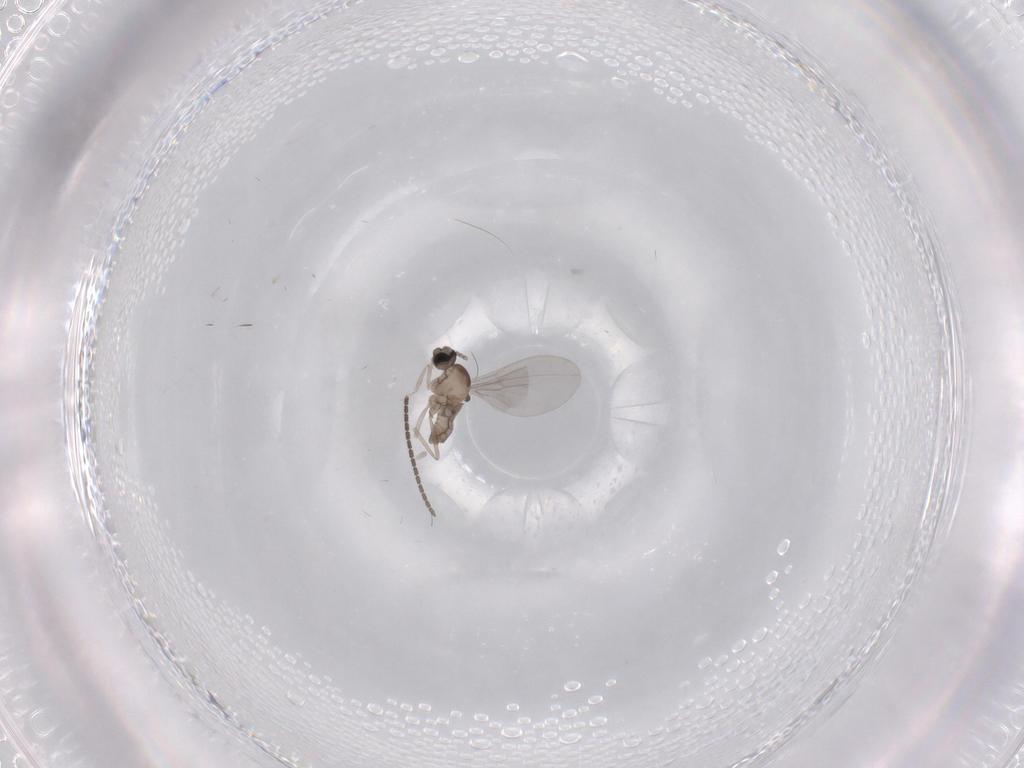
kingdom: Animalia
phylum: Arthropoda
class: Insecta
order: Diptera
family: Cecidomyiidae
